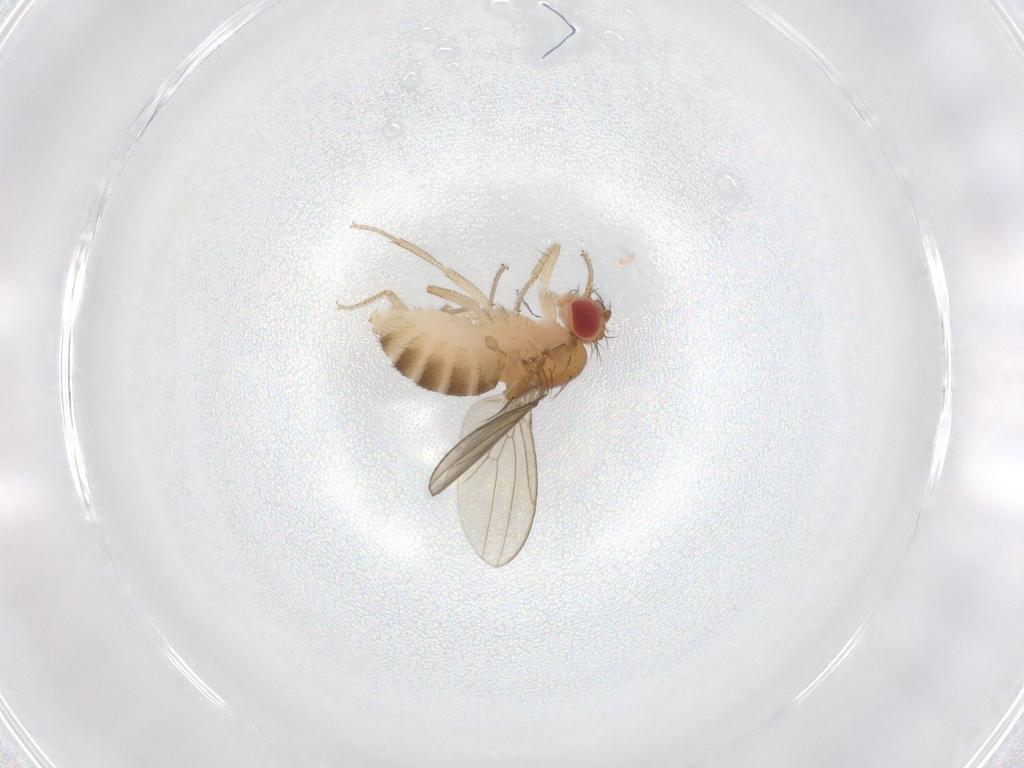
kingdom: Animalia
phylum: Arthropoda
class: Insecta
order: Diptera
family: Drosophilidae
